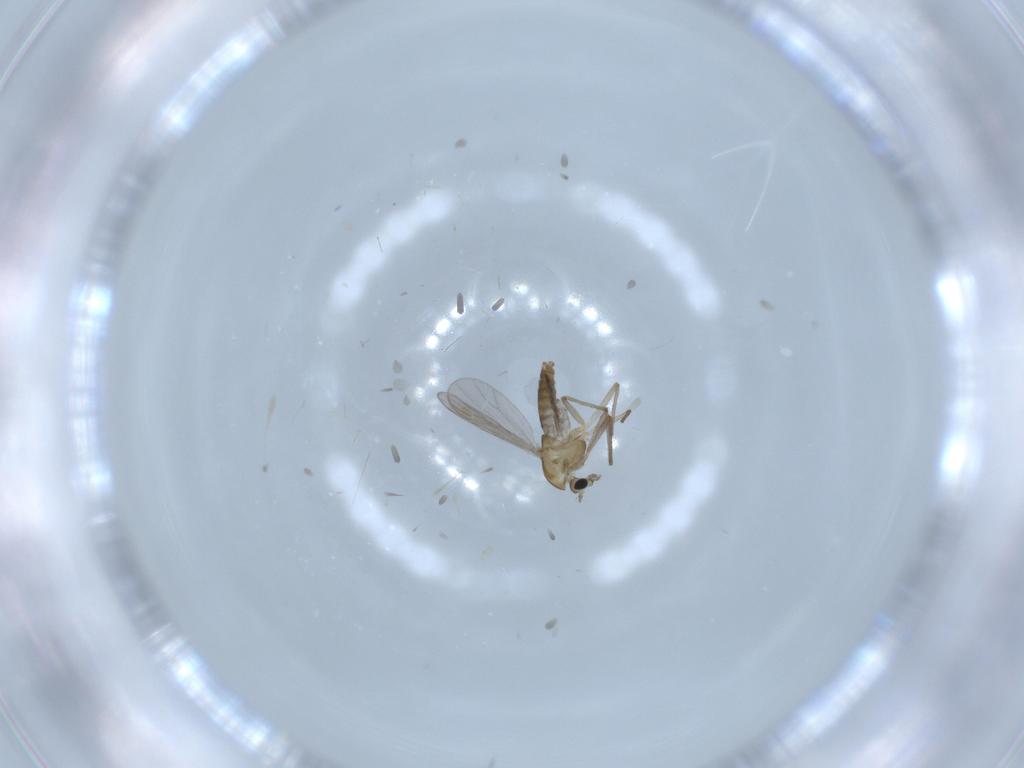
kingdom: Animalia
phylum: Arthropoda
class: Insecta
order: Diptera
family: Chironomidae
